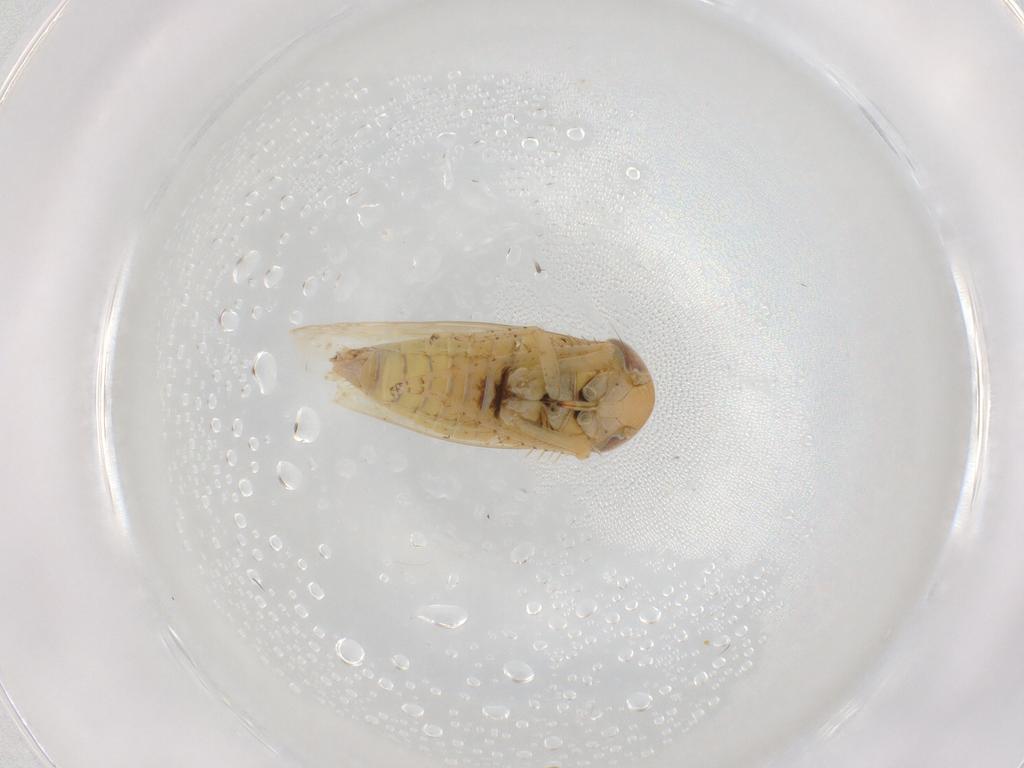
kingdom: Animalia
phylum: Arthropoda
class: Insecta
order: Hemiptera
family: Cicadellidae
